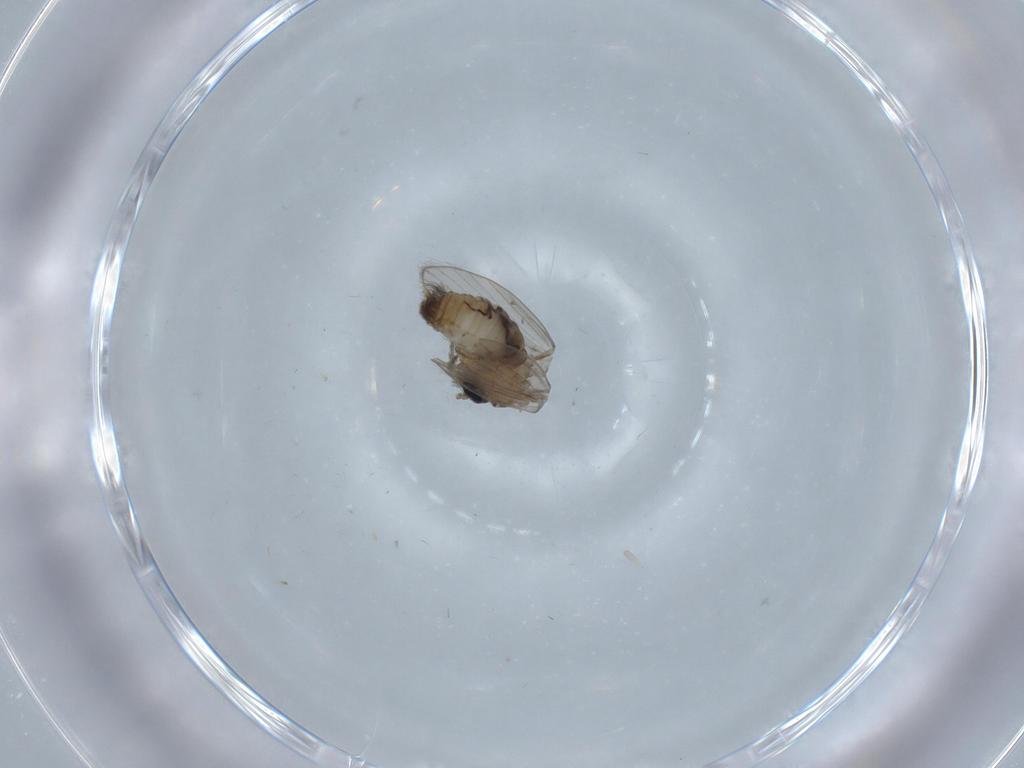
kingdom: Animalia
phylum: Arthropoda
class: Insecta
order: Diptera
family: Psychodidae
